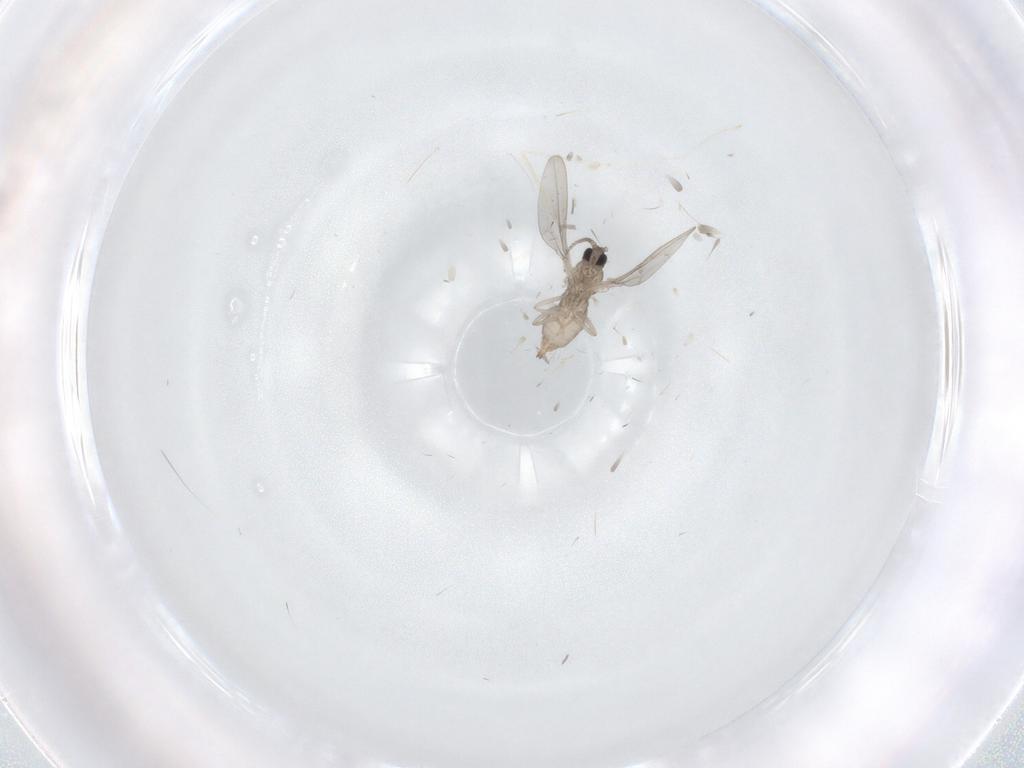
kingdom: Animalia
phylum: Arthropoda
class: Insecta
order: Diptera
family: Cecidomyiidae
